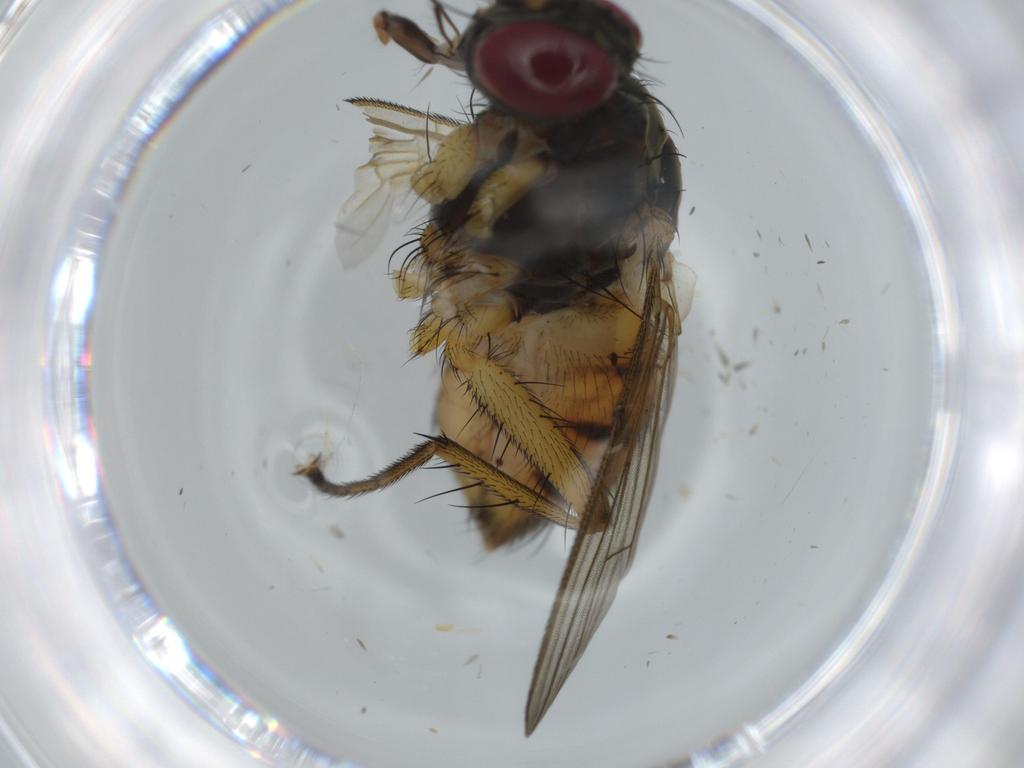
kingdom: Animalia
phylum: Arthropoda
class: Insecta
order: Diptera
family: Muscidae
